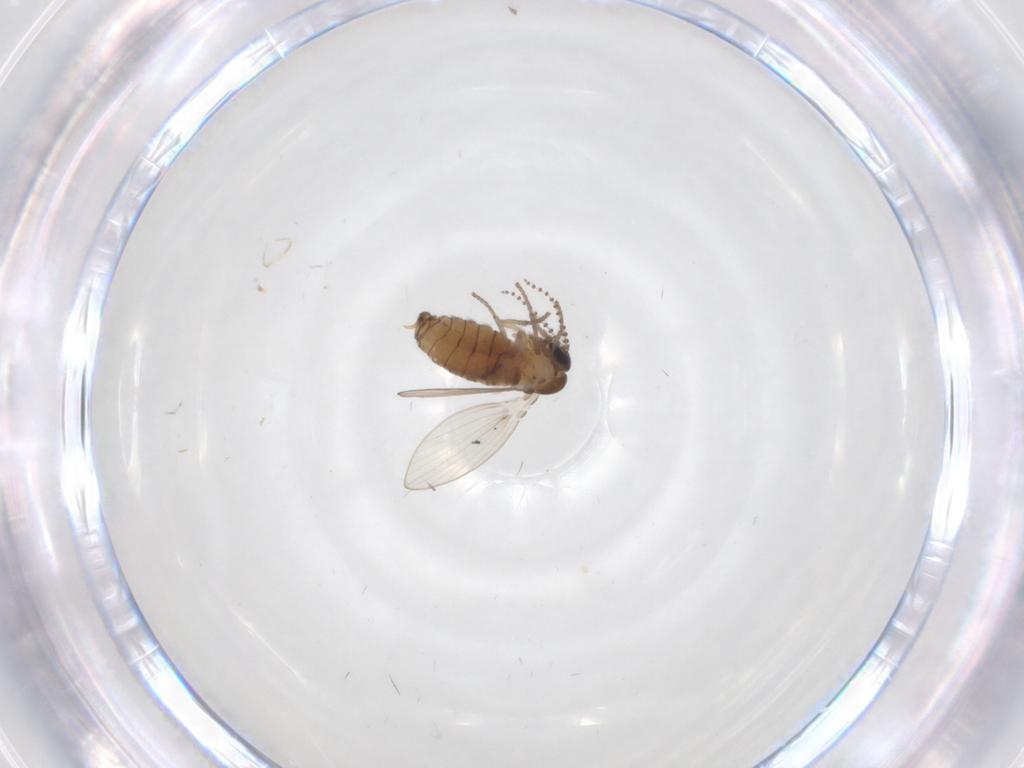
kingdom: Animalia
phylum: Arthropoda
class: Insecta
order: Diptera
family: Psychodidae
